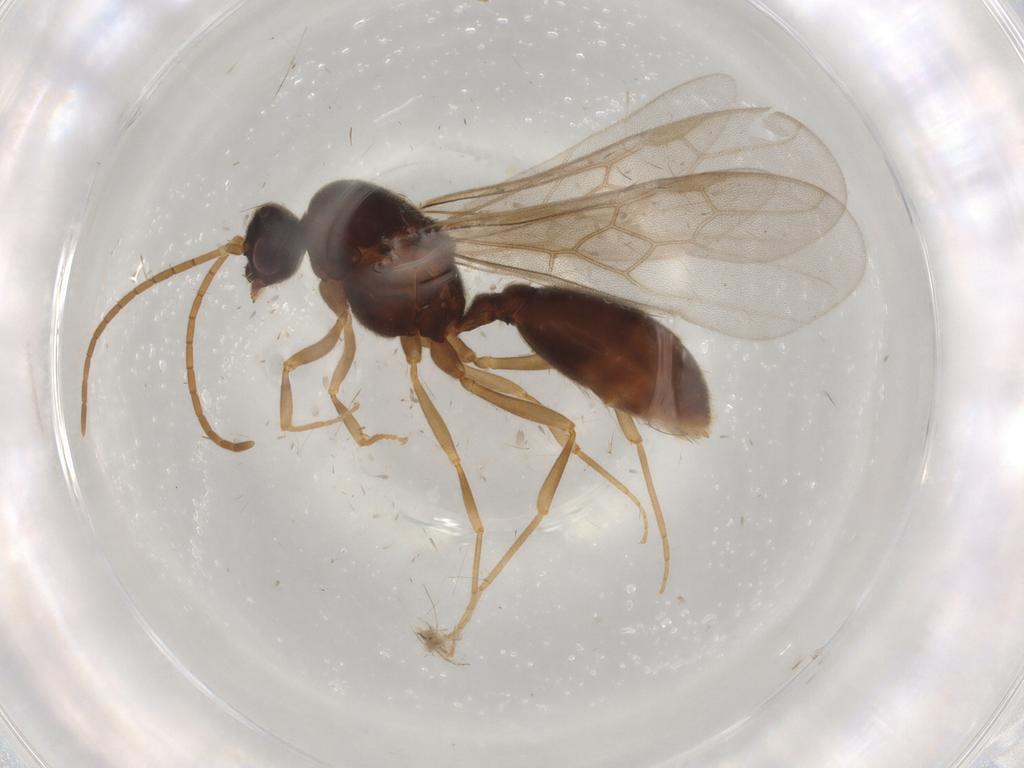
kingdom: Animalia
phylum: Arthropoda
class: Insecta
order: Hymenoptera
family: Formicidae
